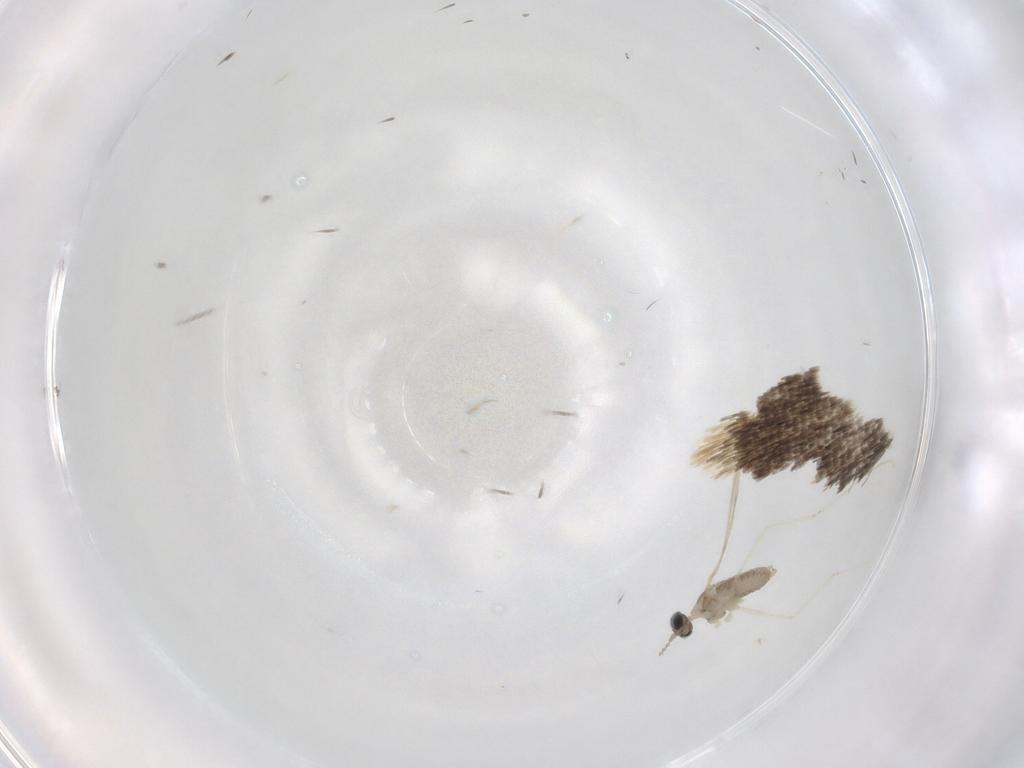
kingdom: Animalia
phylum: Arthropoda
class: Insecta
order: Diptera
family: Cecidomyiidae
